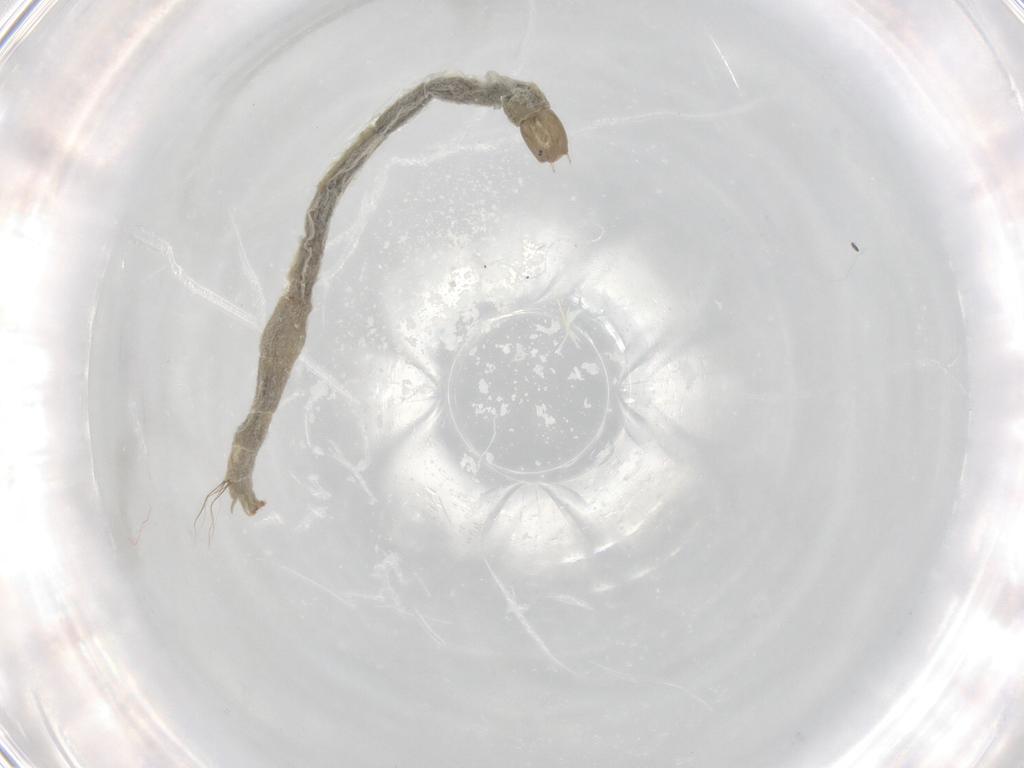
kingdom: Animalia
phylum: Arthropoda
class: Insecta
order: Diptera
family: Chironomidae
